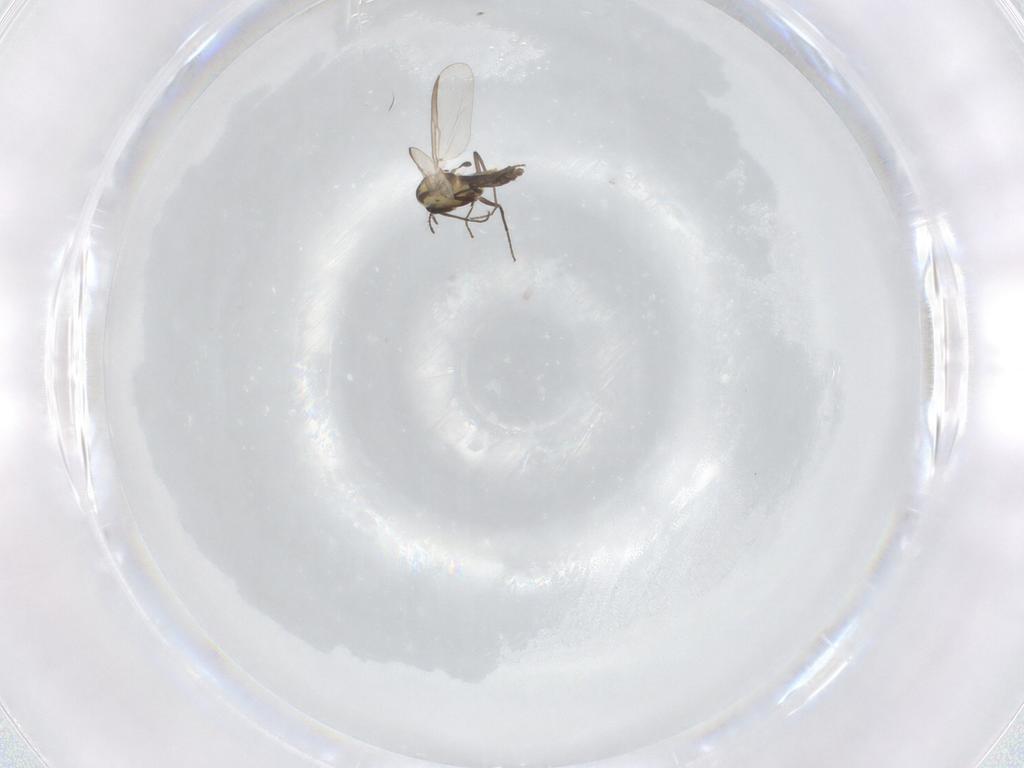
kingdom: Animalia
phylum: Arthropoda
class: Insecta
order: Diptera
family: Chironomidae
